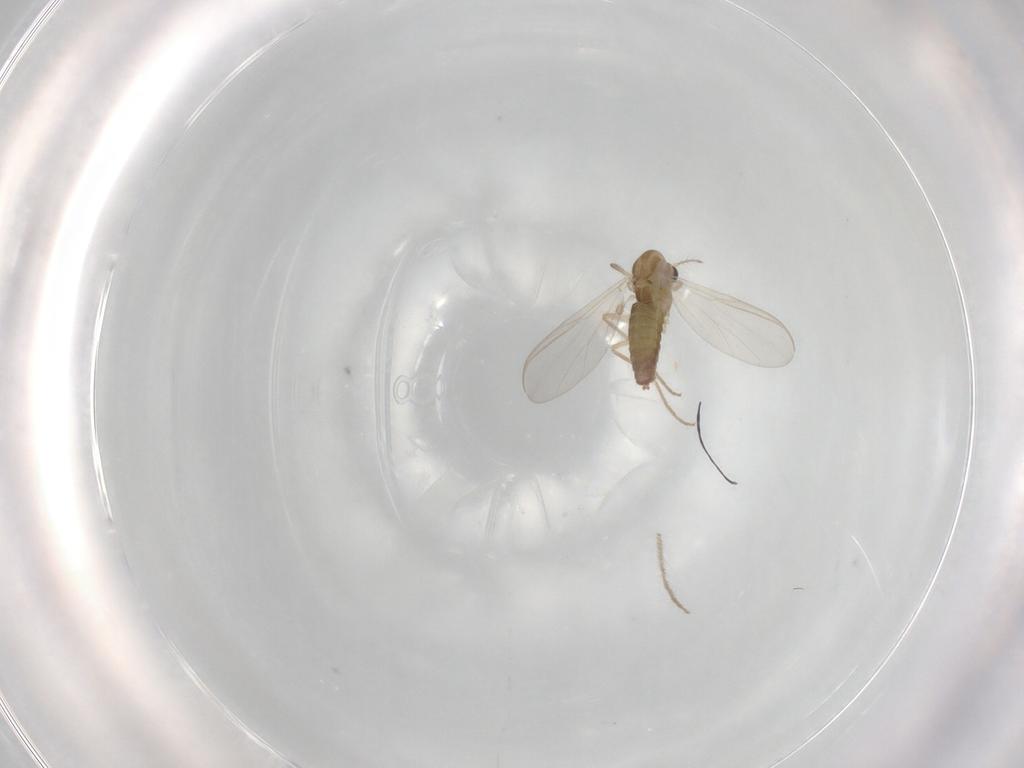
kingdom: Animalia
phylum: Arthropoda
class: Insecta
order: Diptera
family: Chironomidae
